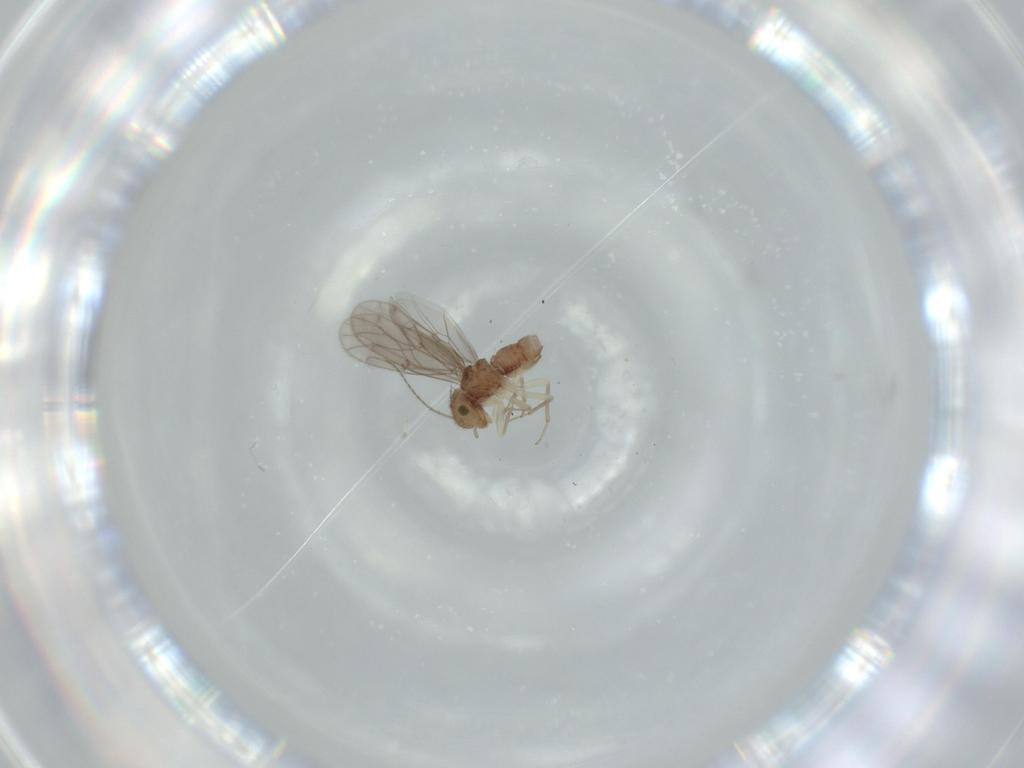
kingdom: Animalia
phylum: Arthropoda
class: Insecta
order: Psocodea
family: Ectopsocidae
